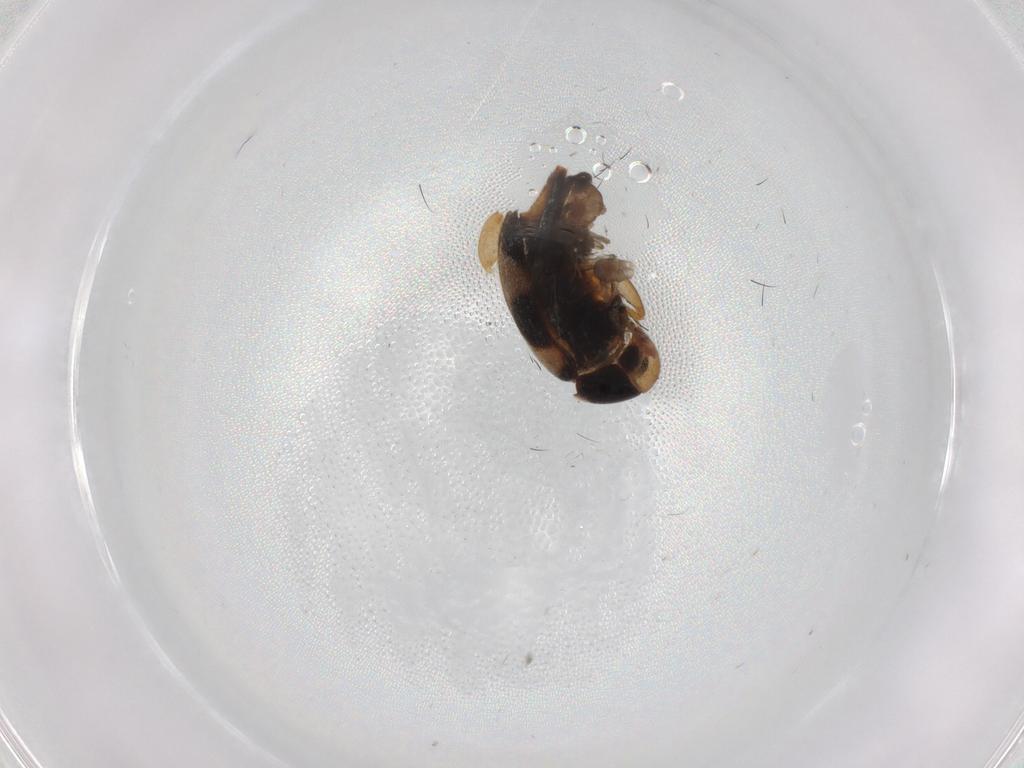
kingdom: Animalia
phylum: Arthropoda
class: Insecta
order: Coleoptera
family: Mordellidae
